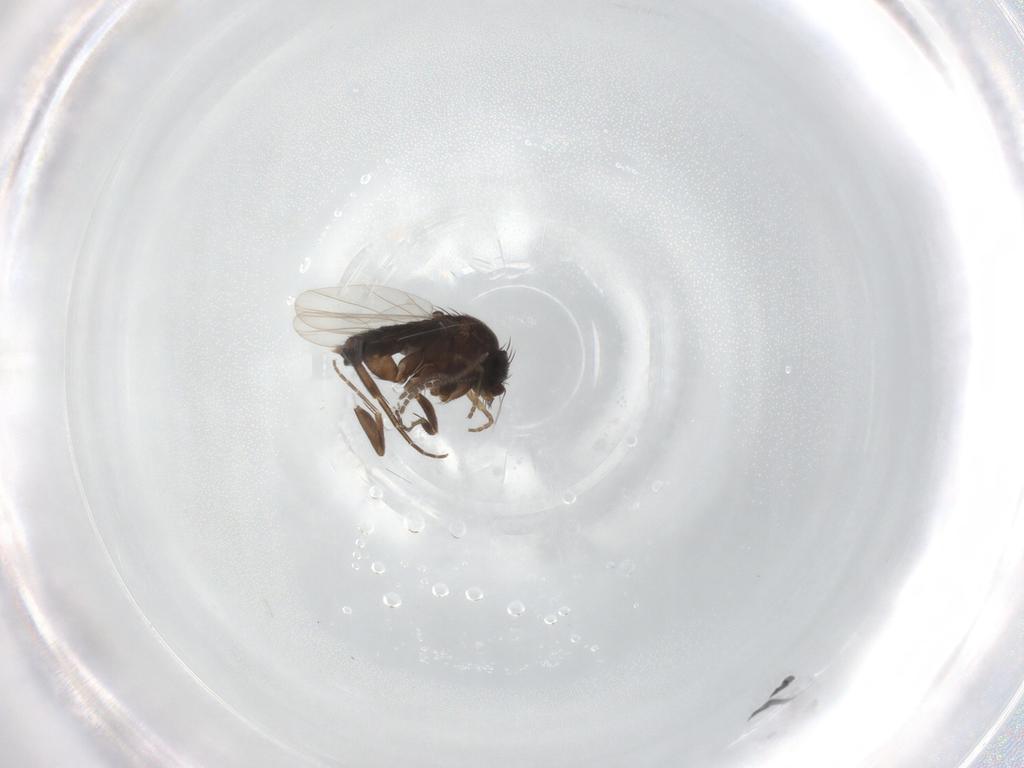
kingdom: Animalia
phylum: Arthropoda
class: Insecta
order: Diptera
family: Phoridae
